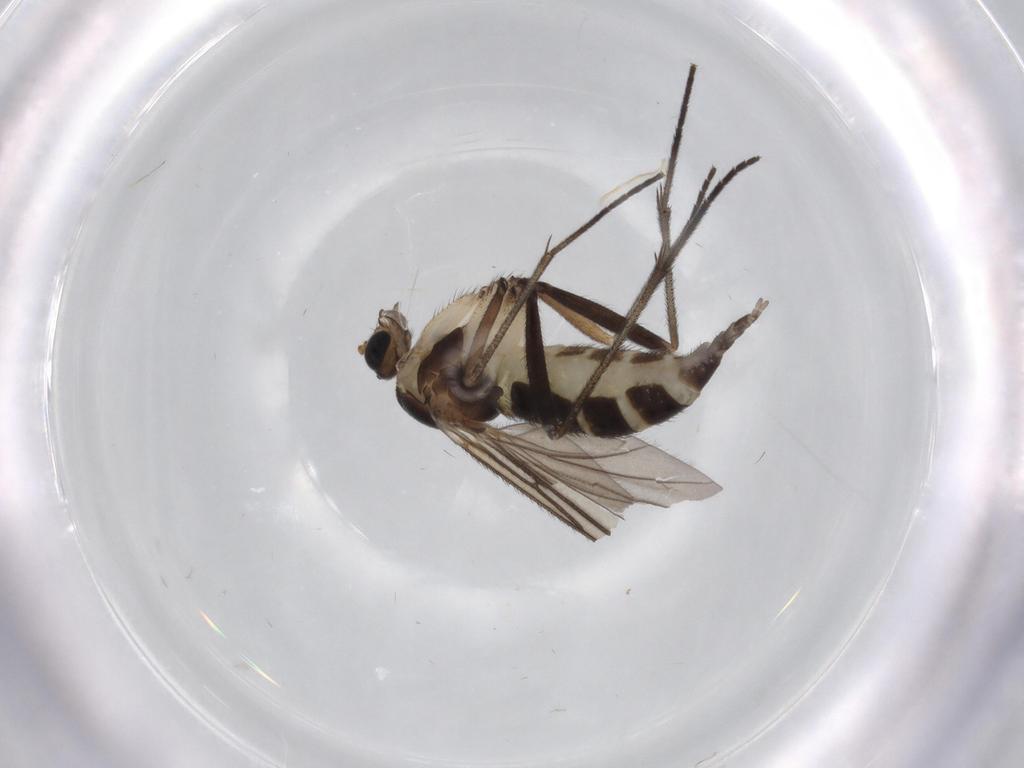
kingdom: Animalia
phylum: Arthropoda
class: Insecta
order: Diptera
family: Sciaridae
